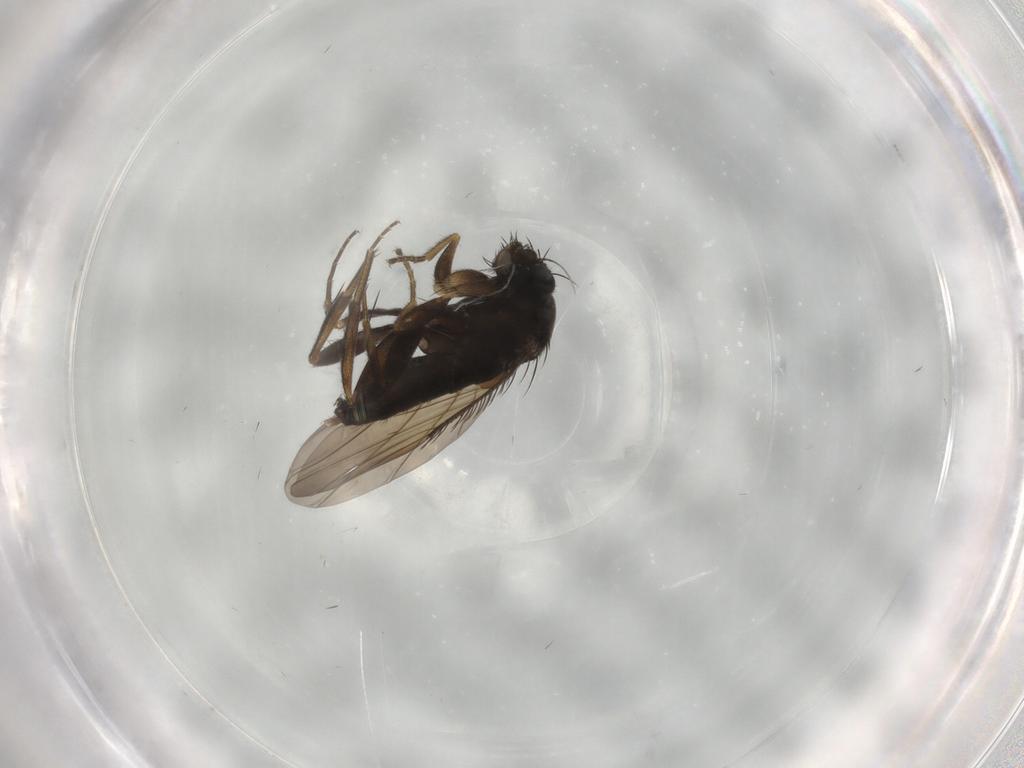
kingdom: Animalia
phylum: Arthropoda
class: Insecta
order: Diptera
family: Phoridae
